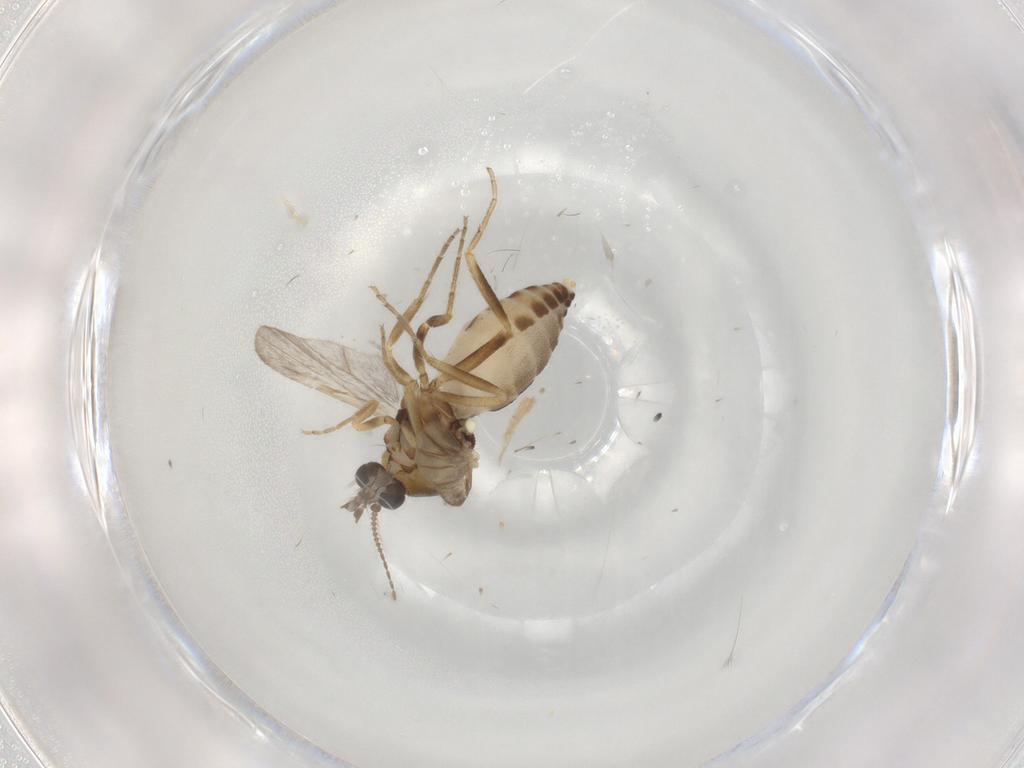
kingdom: Animalia
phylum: Arthropoda
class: Insecta
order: Diptera
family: Ceratopogonidae
